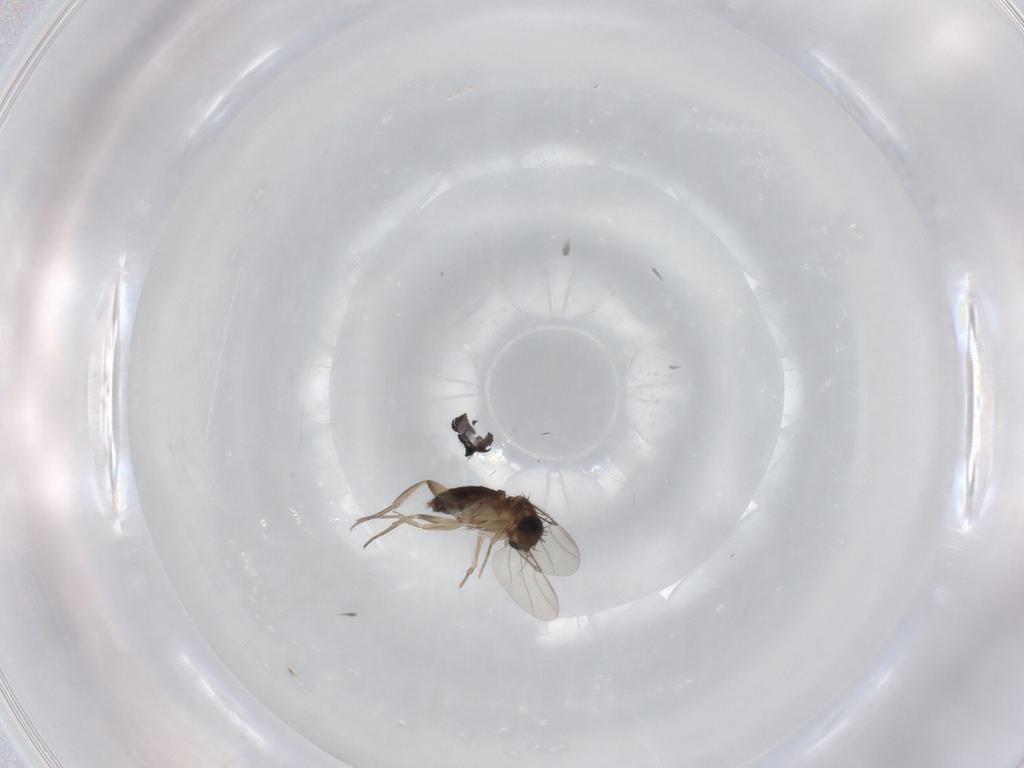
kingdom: Animalia
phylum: Arthropoda
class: Insecta
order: Diptera
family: Phoridae
